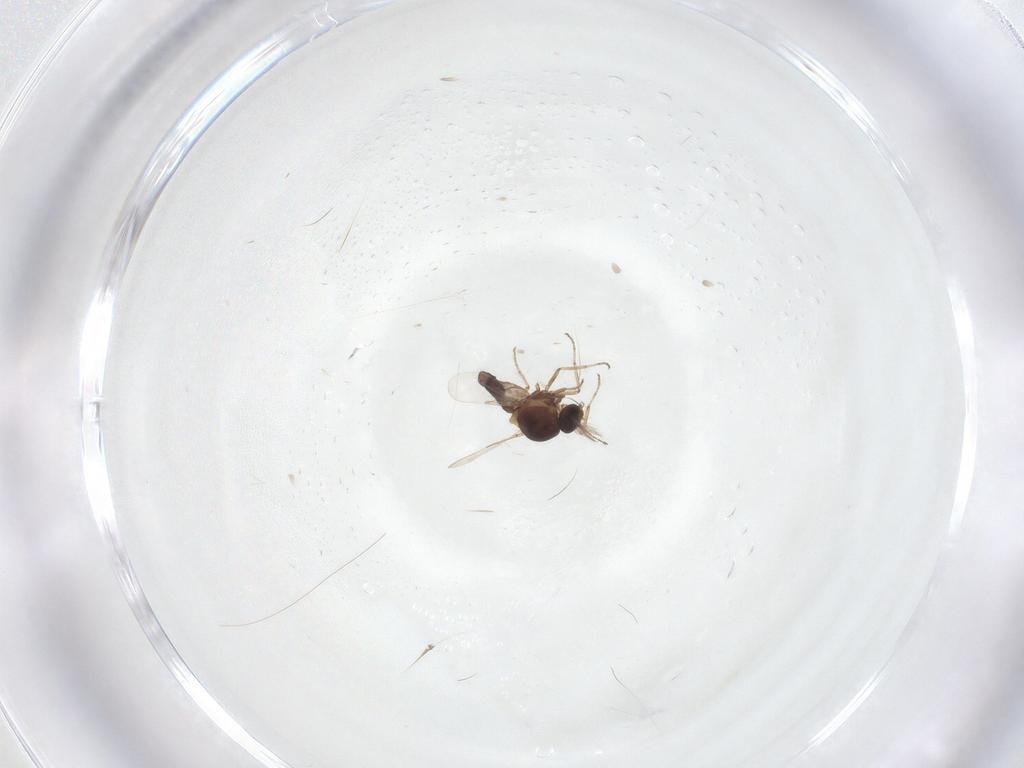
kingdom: Animalia
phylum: Arthropoda
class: Insecta
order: Diptera
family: Ceratopogonidae
